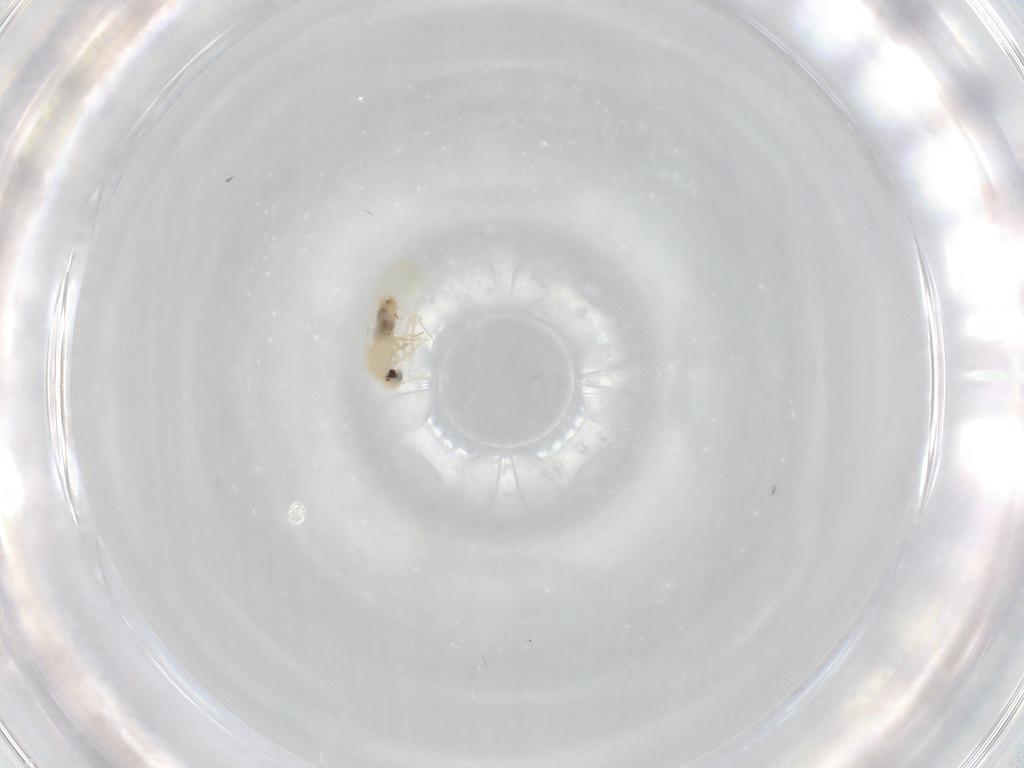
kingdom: Animalia
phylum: Arthropoda
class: Insecta
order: Hemiptera
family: Aleyrodidae
